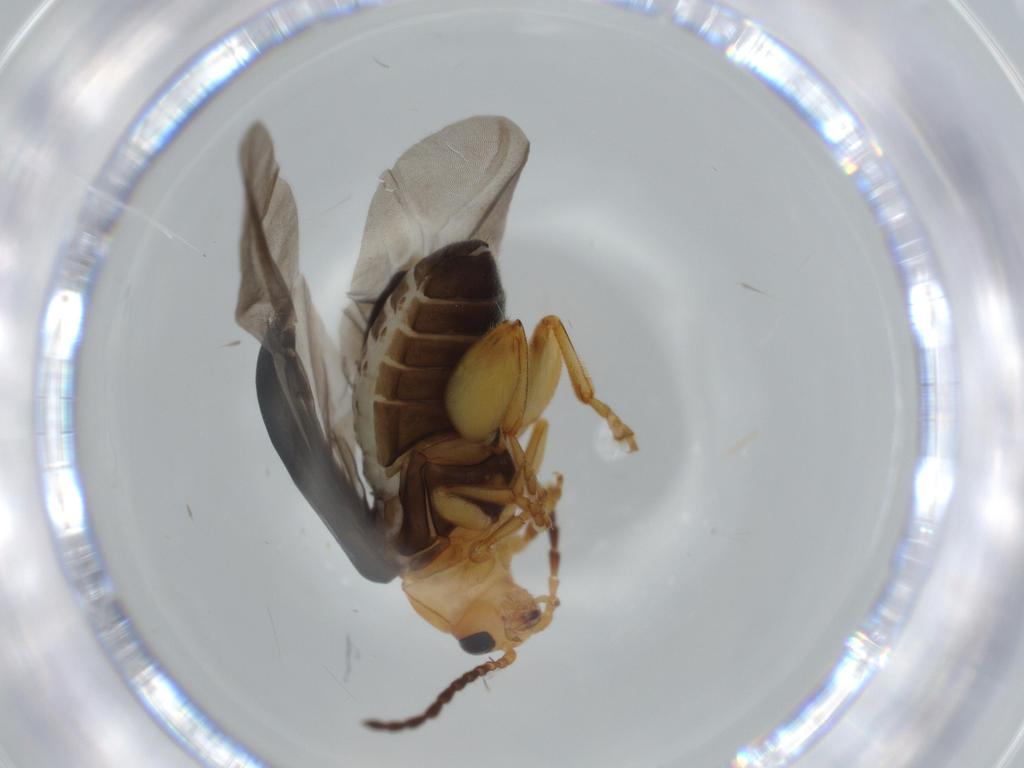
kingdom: Animalia
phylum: Arthropoda
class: Insecta
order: Coleoptera
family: Chrysomelidae
